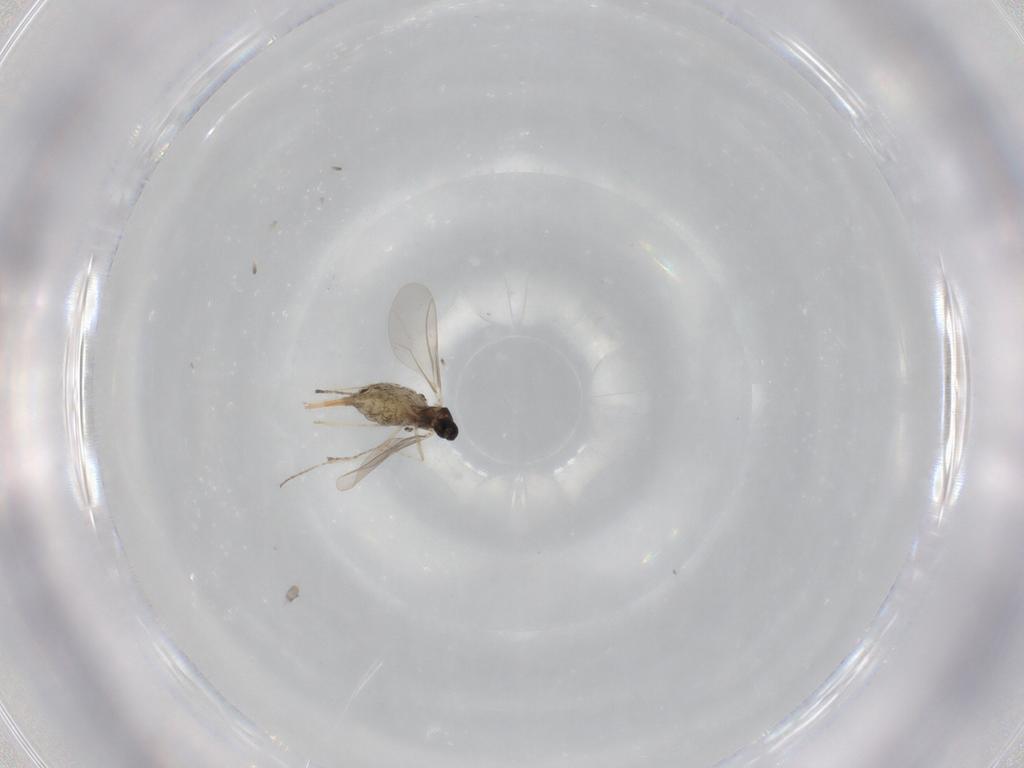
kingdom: Animalia
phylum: Arthropoda
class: Insecta
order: Diptera
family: Cecidomyiidae
